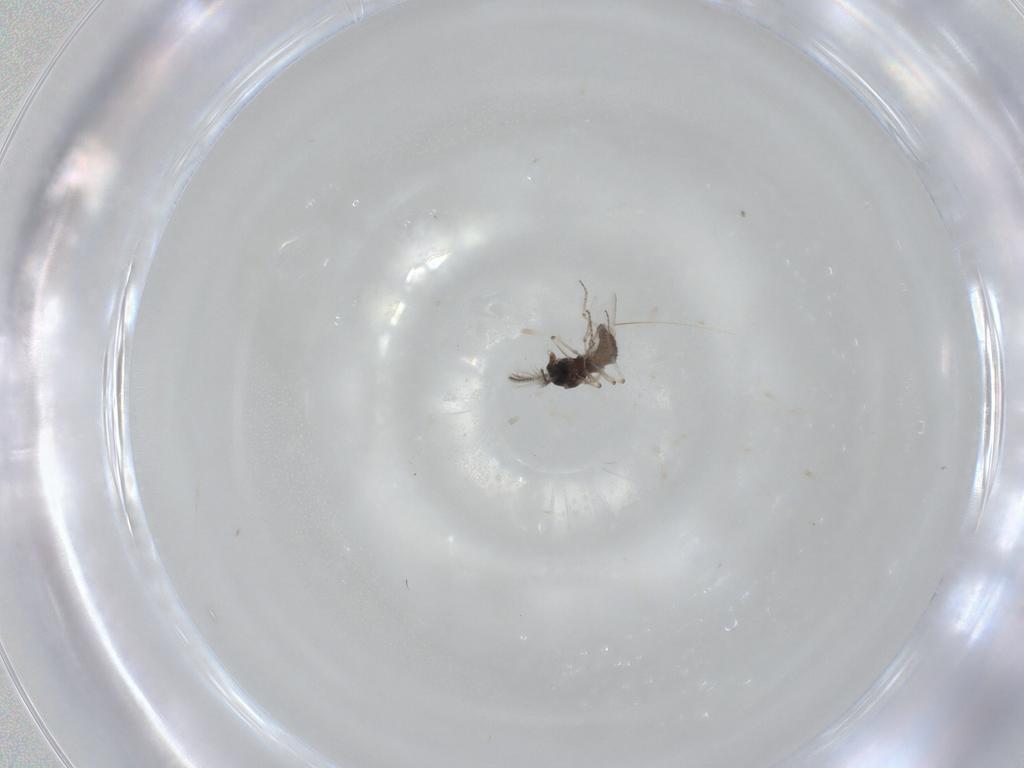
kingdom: Animalia
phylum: Arthropoda
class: Insecta
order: Diptera
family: Ceratopogonidae
